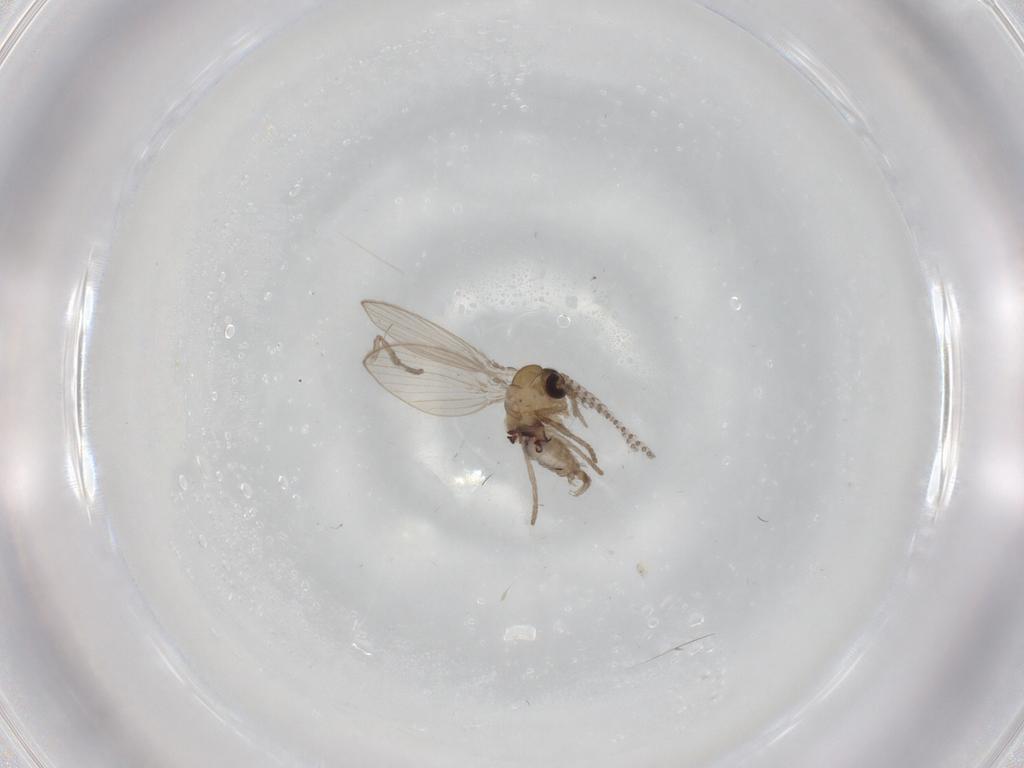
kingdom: Animalia
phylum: Arthropoda
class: Insecta
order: Diptera
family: Psychodidae
